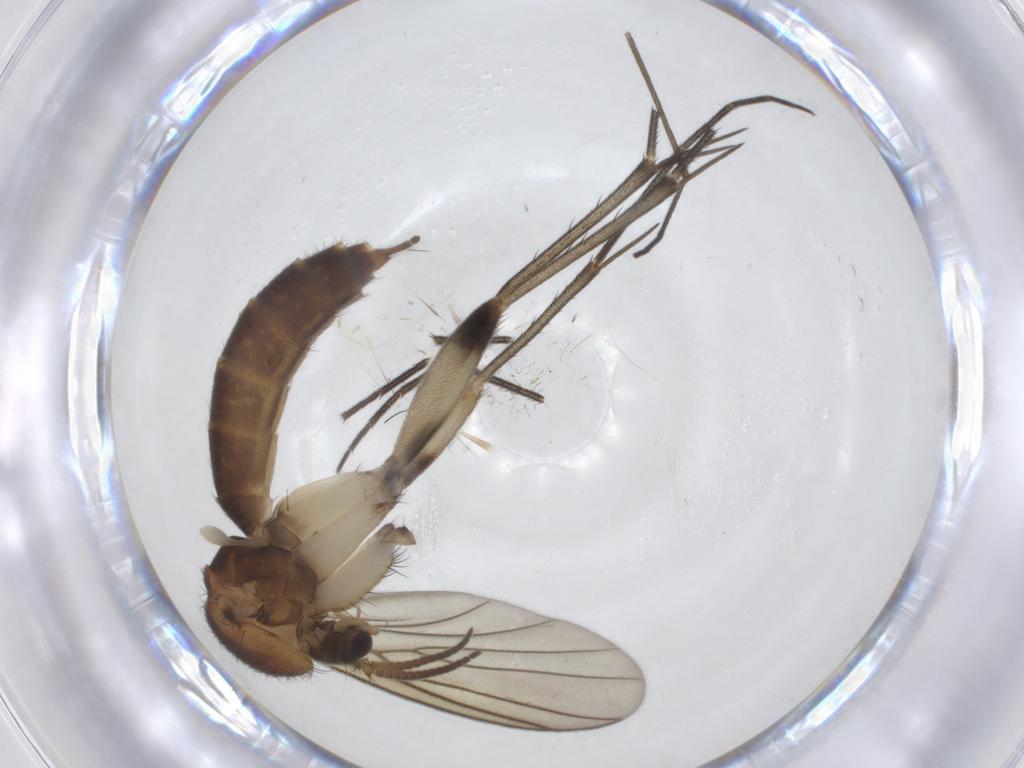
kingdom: Animalia
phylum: Arthropoda
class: Insecta
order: Diptera
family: Mycetophilidae
